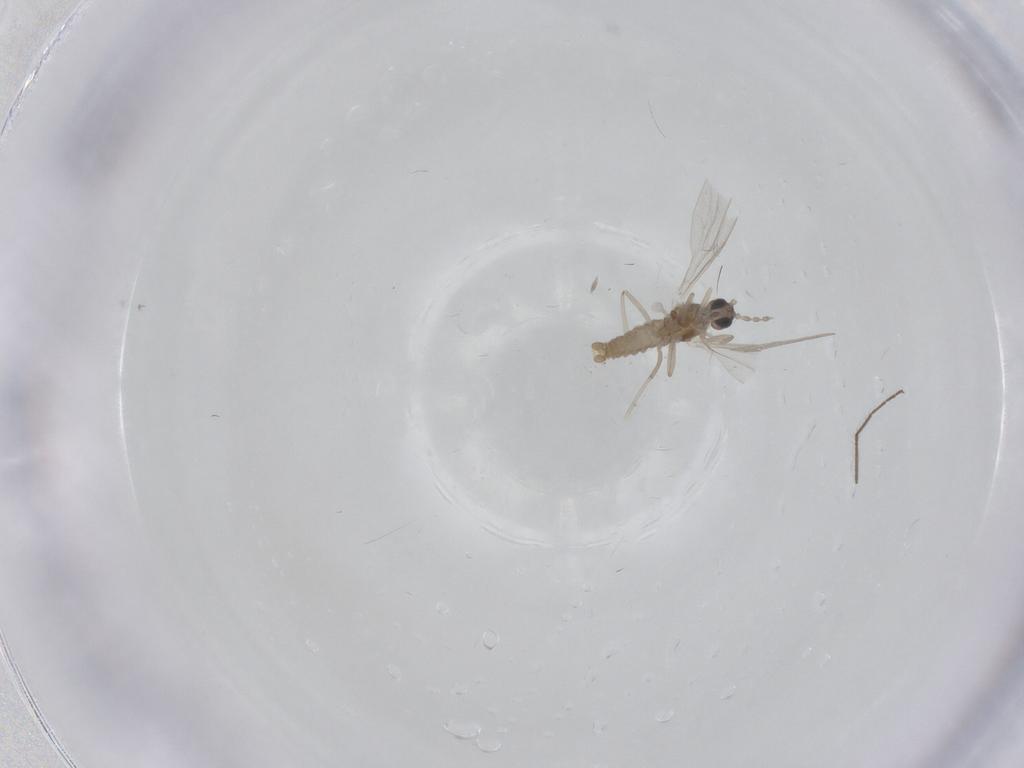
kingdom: Animalia
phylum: Arthropoda
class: Insecta
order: Diptera
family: Cecidomyiidae
